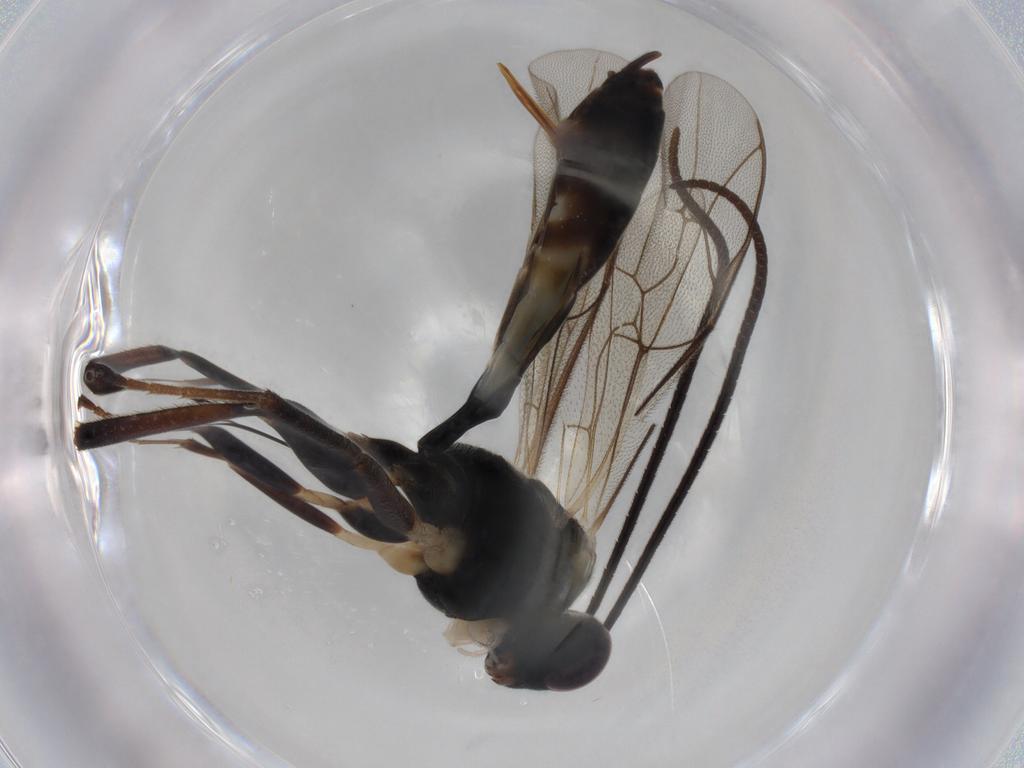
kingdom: Animalia
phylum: Arthropoda
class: Insecta
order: Hymenoptera
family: Ichneumonidae
